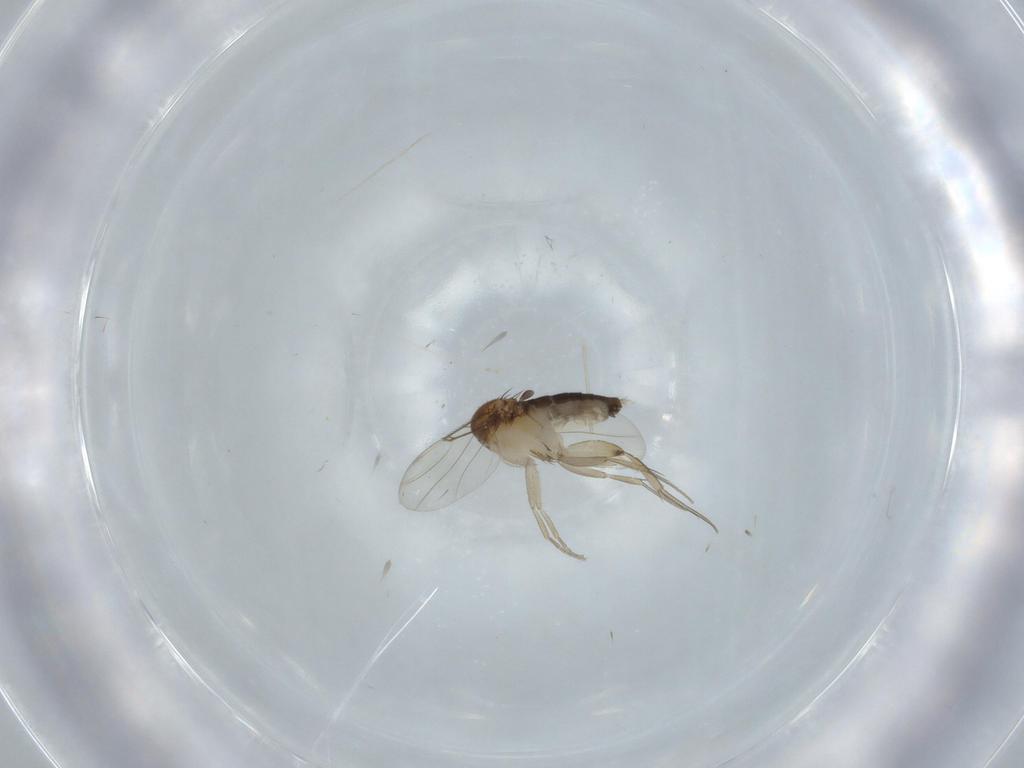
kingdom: Animalia
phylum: Arthropoda
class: Insecta
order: Diptera
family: Phoridae
